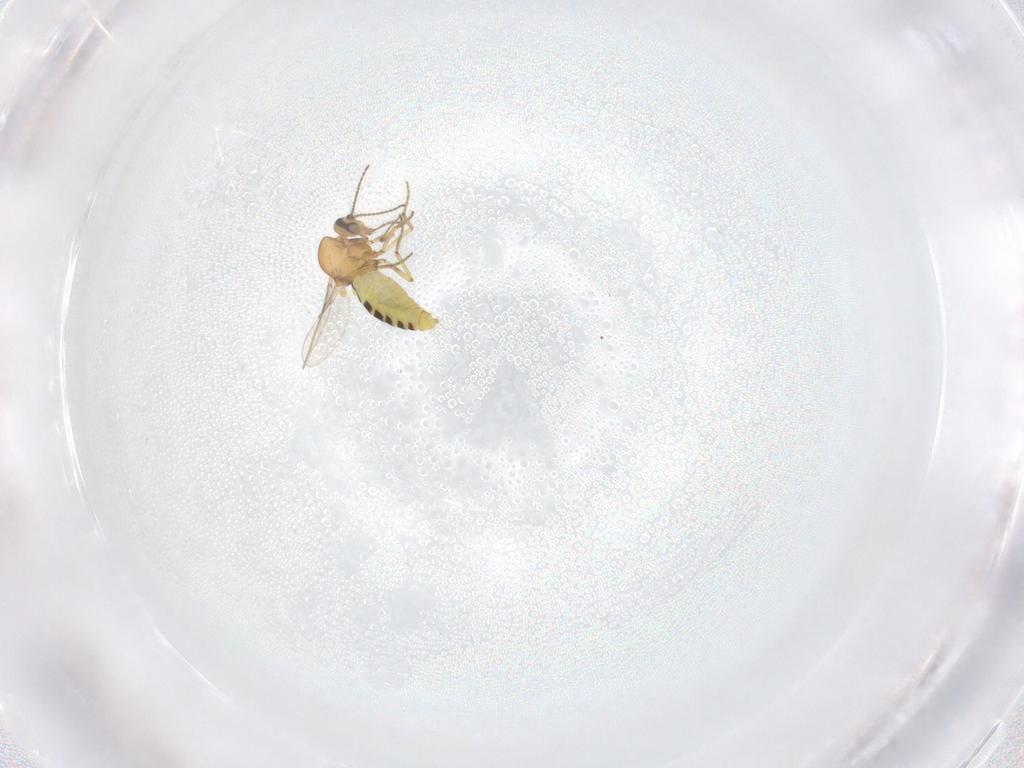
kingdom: Animalia
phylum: Arthropoda
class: Insecta
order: Diptera
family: Phoridae
